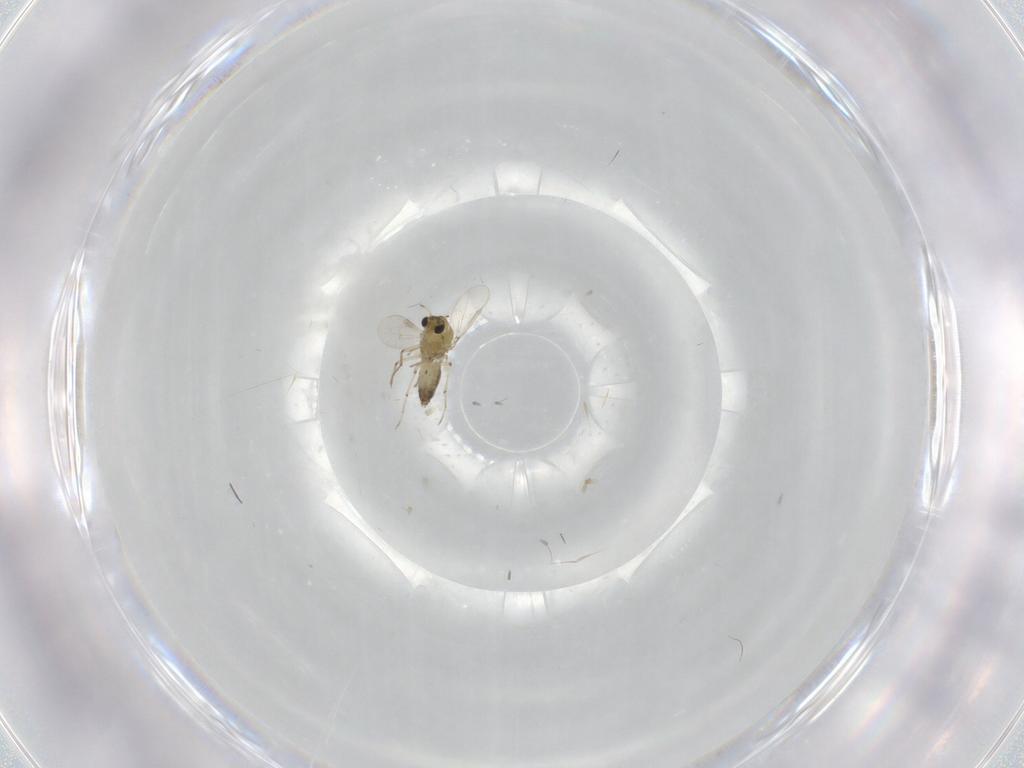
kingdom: Animalia
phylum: Arthropoda
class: Insecta
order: Diptera
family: Chironomidae
